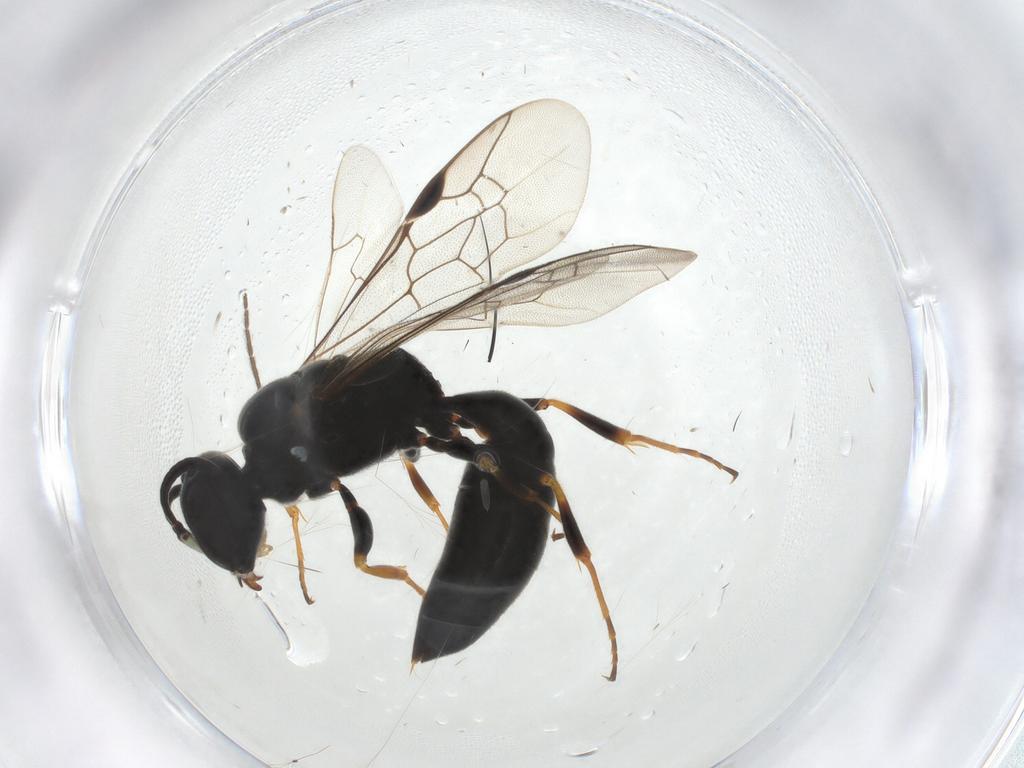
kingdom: Animalia
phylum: Arthropoda
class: Insecta
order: Hymenoptera
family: Crabronidae
